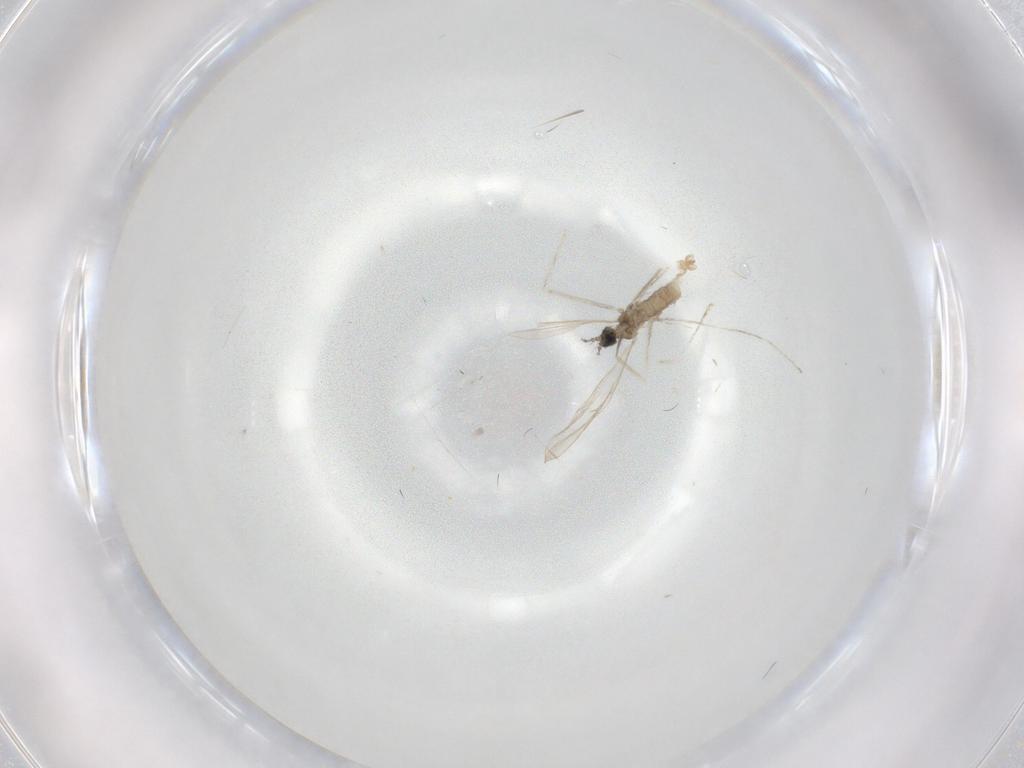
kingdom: Animalia
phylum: Arthropoda
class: Insecta
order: Diptera
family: Cecidomyiidae
